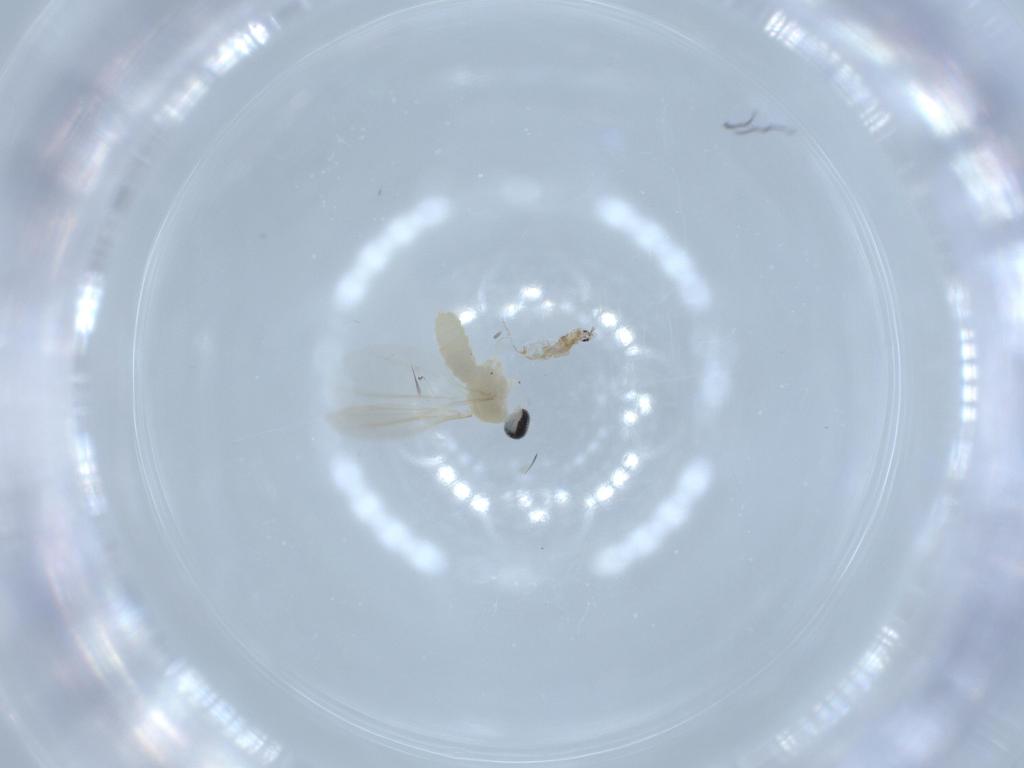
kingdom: Animalia
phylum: Arthropoda
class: Insecta
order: Diptera
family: Cecidomyiidae
